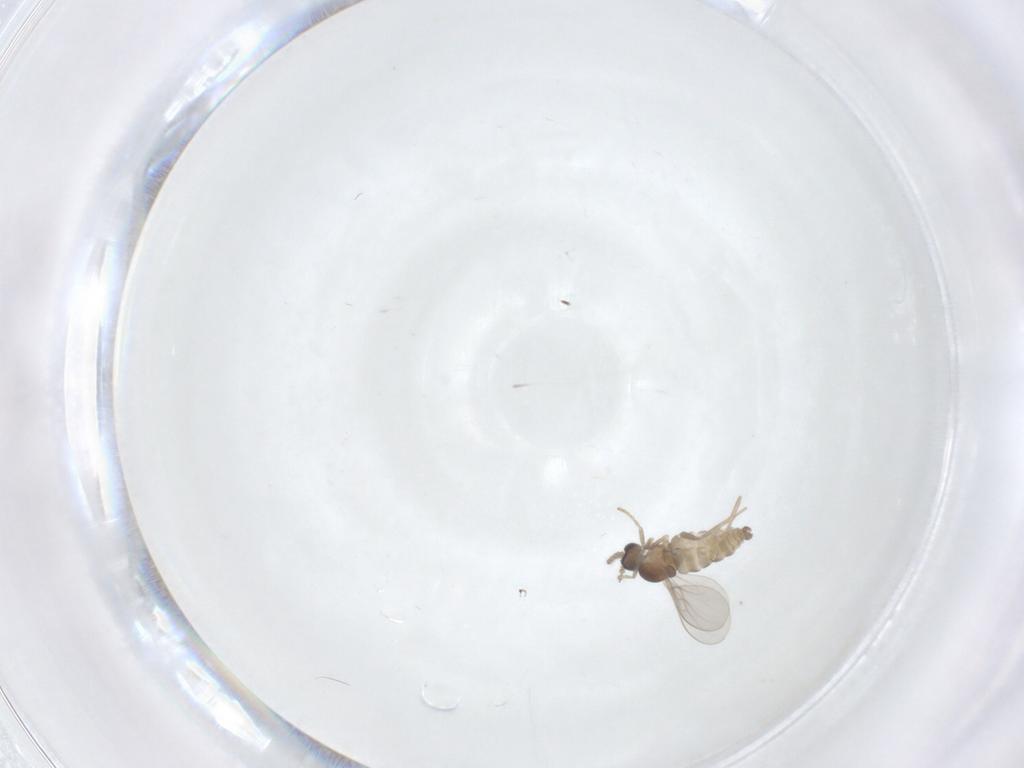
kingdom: Animalia
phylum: Arthropoda
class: Insecta
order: Diptera
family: Cecidomyiidae
